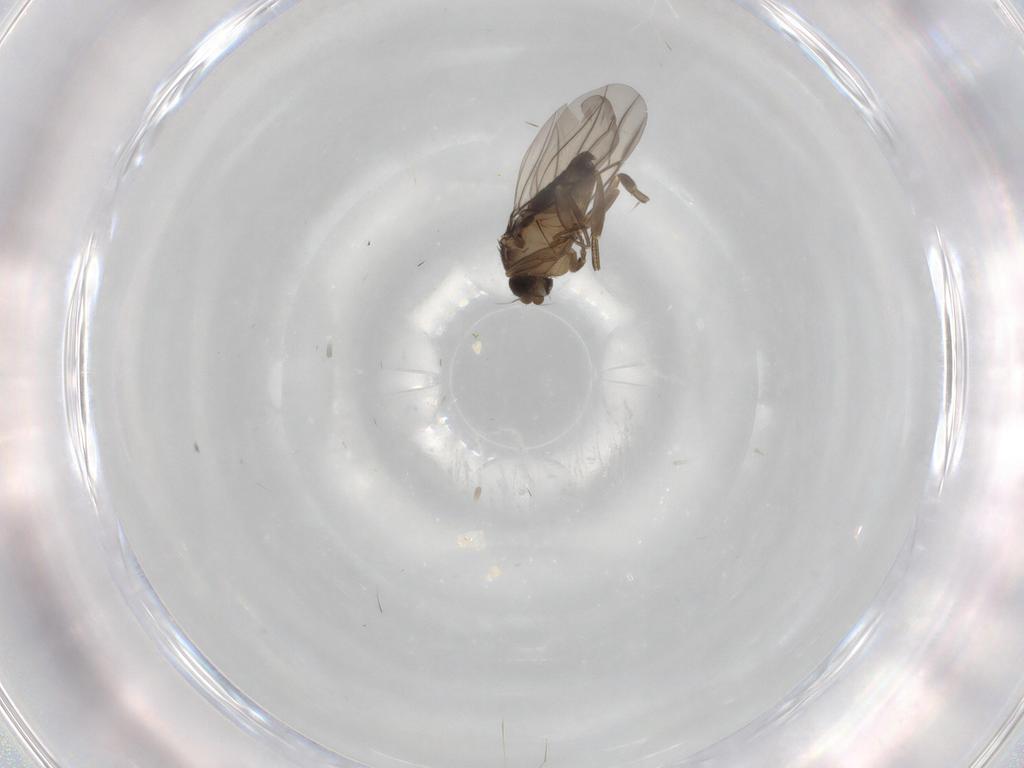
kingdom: Animalia
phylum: Arthropoda
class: Insecta
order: Diptera
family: Phoridae
